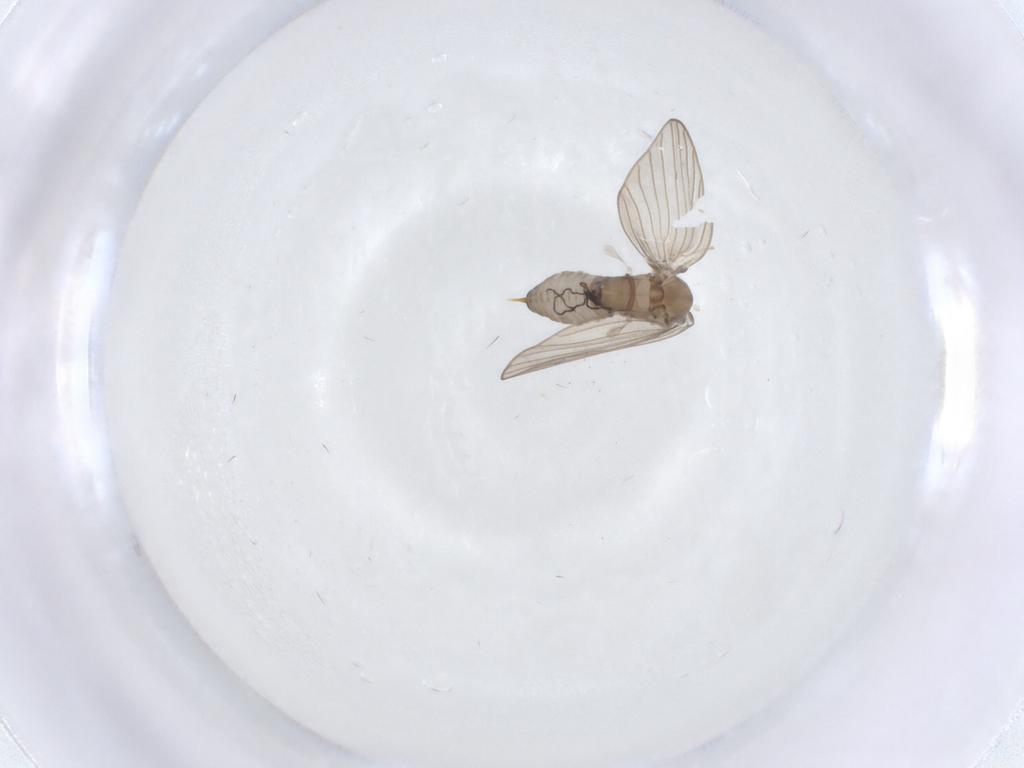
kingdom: Animalia
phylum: Arthropoda
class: Insecta
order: Diptera
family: Psychodidae
